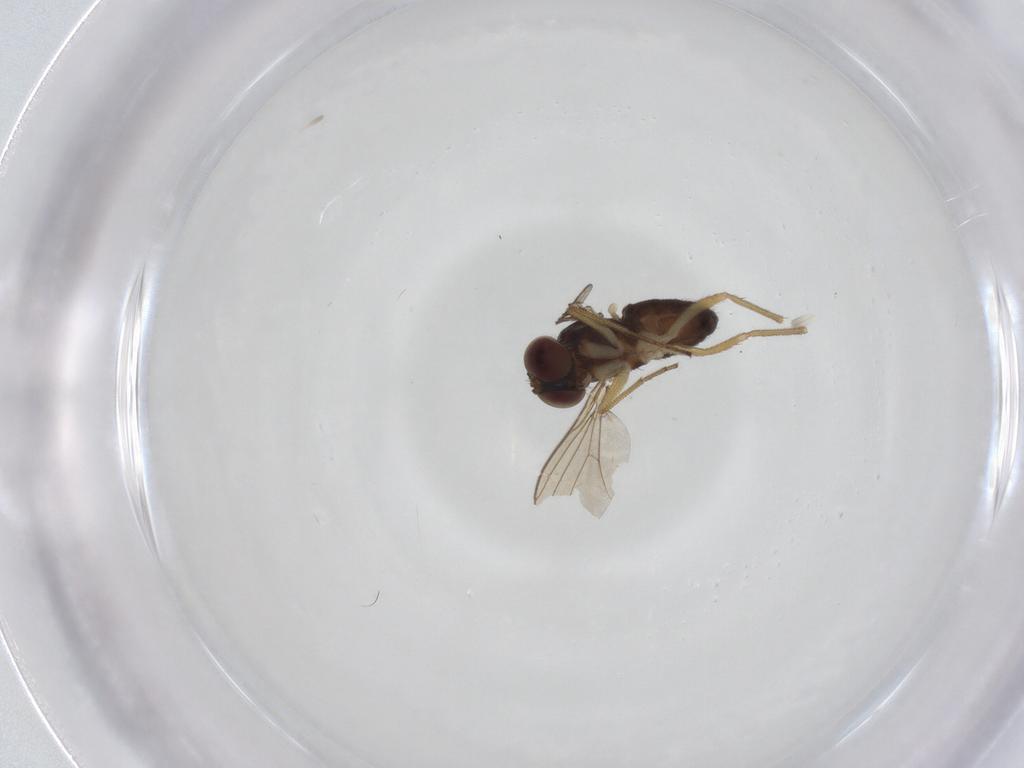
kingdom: Animalia
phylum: Arthropoda
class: Insecta
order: Diptera
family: Dolichopodidae
